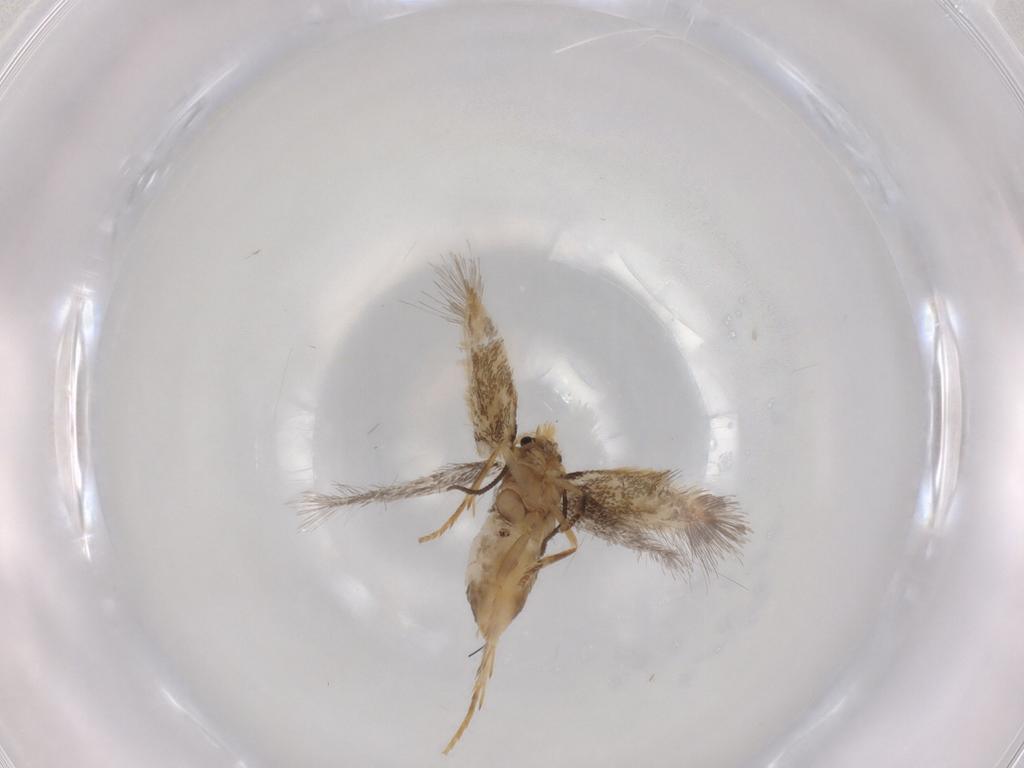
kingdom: Animalia
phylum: Arthropoda
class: Insecta
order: Lepidoptera
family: Nepticulidae
